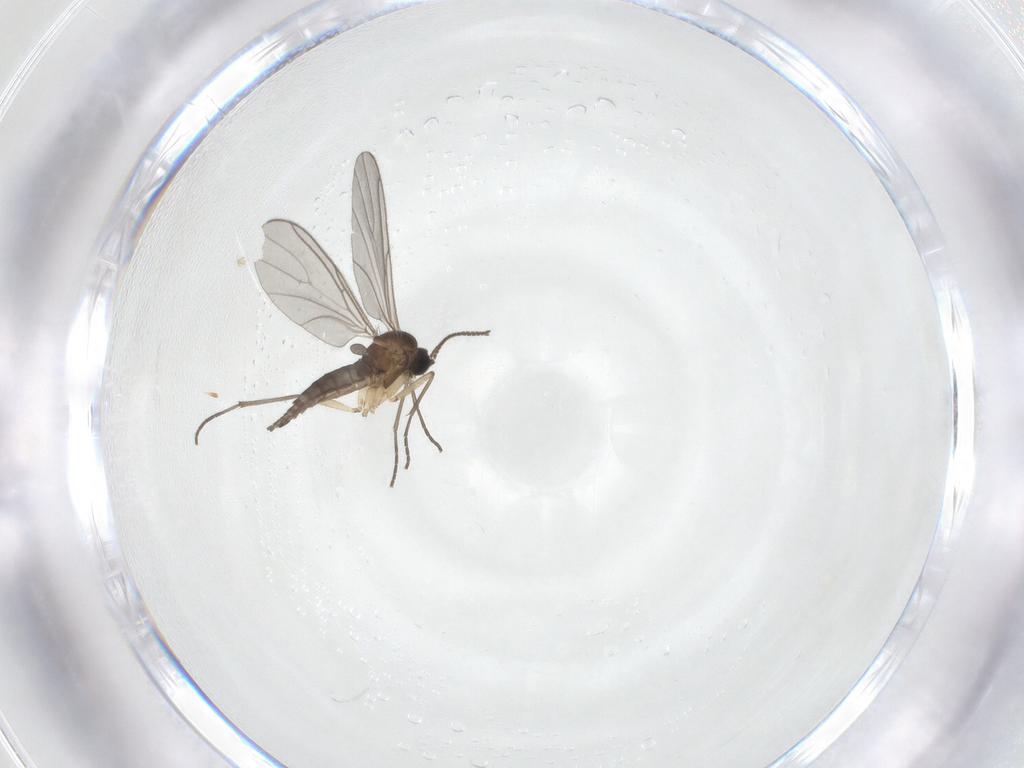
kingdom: Animalia
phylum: Arthropoda
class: Insecta
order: Diptera
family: Sciaridae
